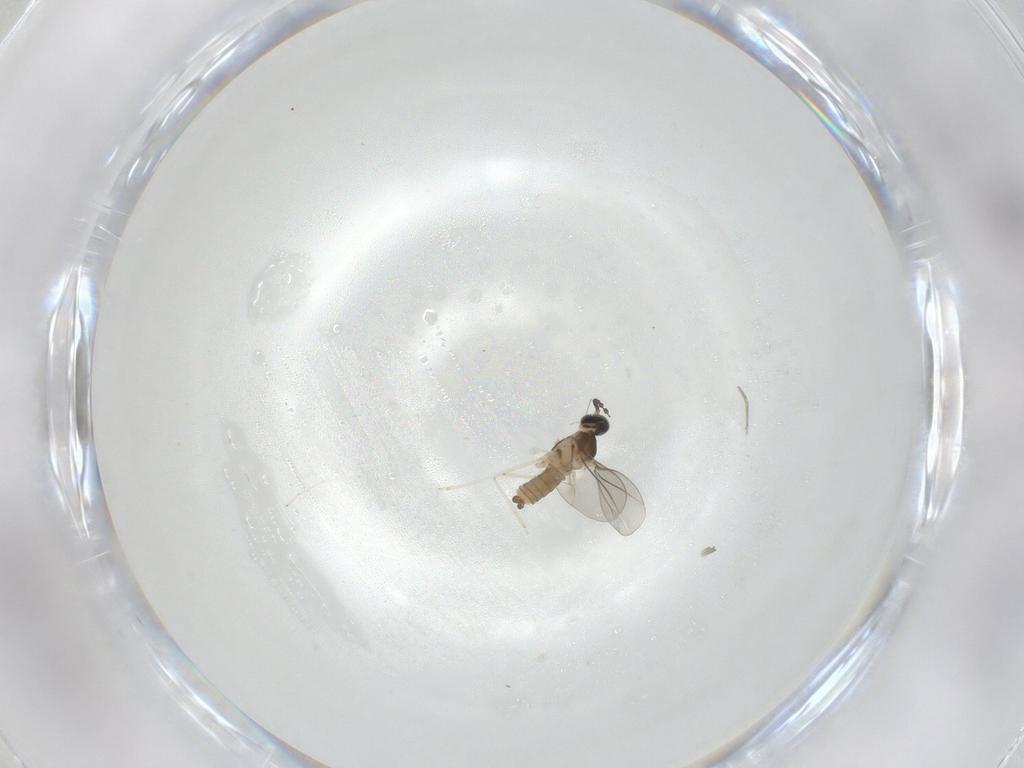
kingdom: Animalia
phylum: Arthropoda
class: Insecta
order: Diptera
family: Cecidomyiidae
